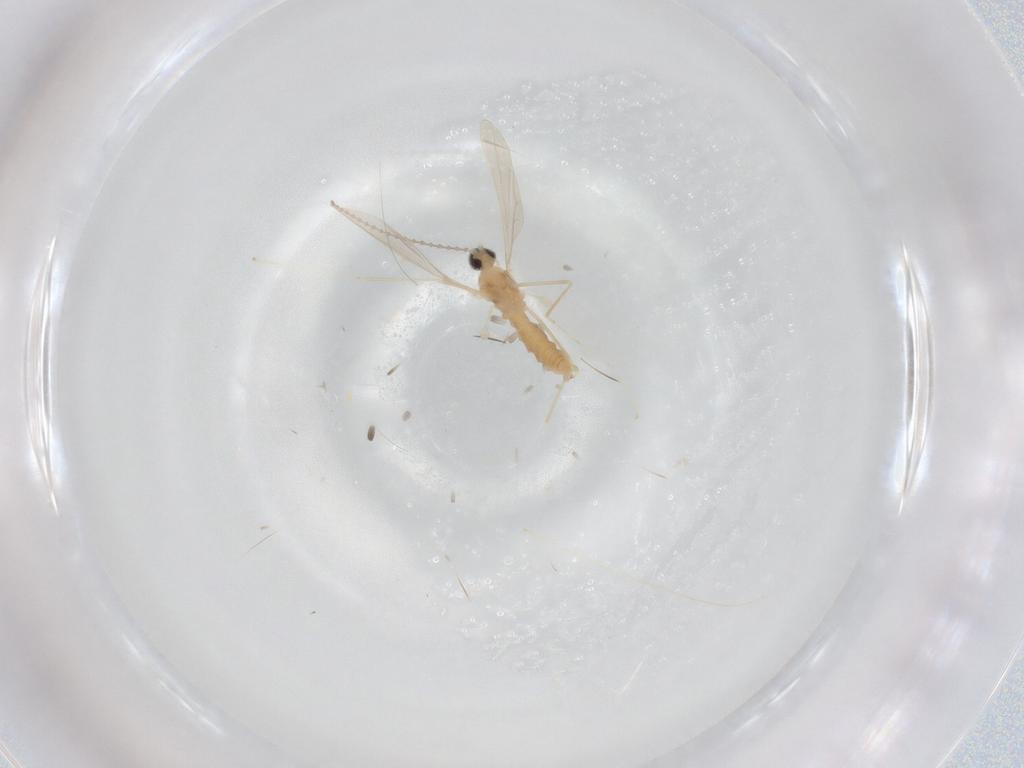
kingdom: Animalia
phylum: Arthropoda
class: Insecta
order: Diptera
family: Cecidomyiidae
